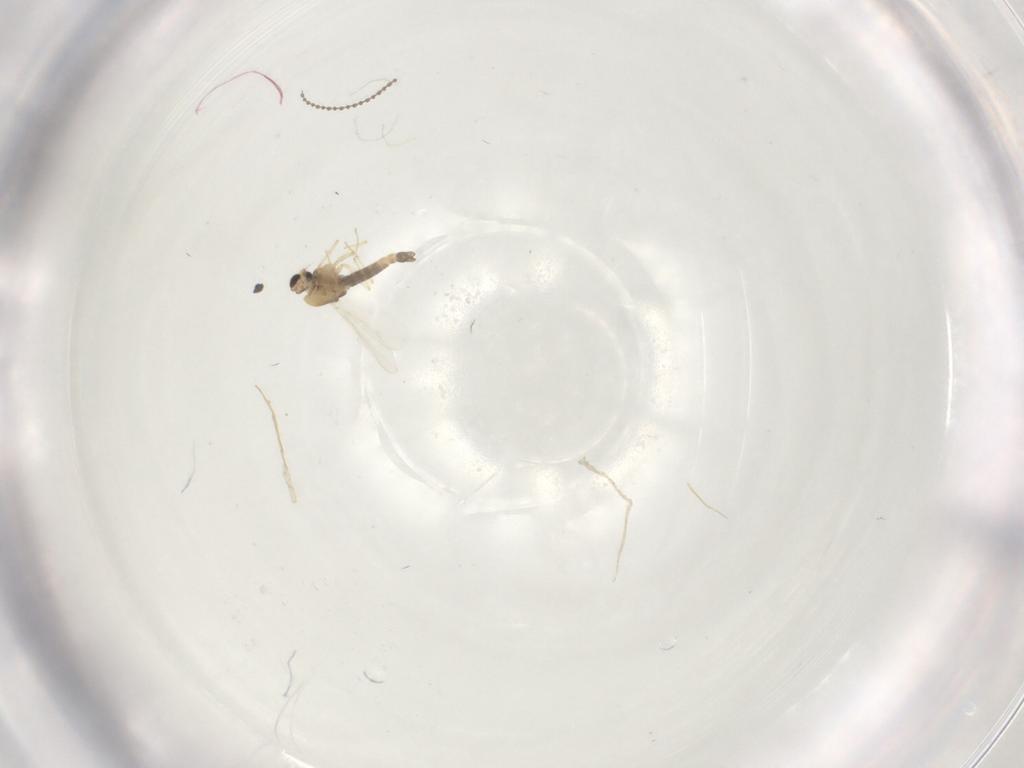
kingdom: Animalia
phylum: Arthropoda
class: Insecta
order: Diptera
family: Cecidomyiidae
